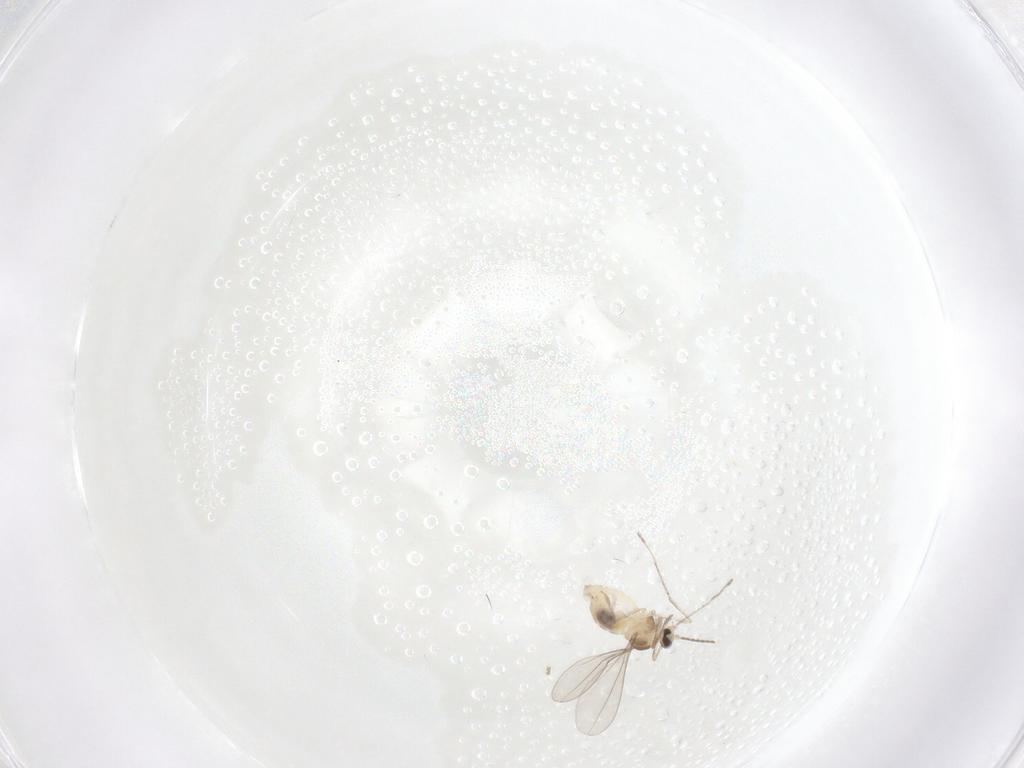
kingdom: Animalia
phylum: Arthropoda
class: Insecta
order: Diptera
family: Cecidomyiidae
